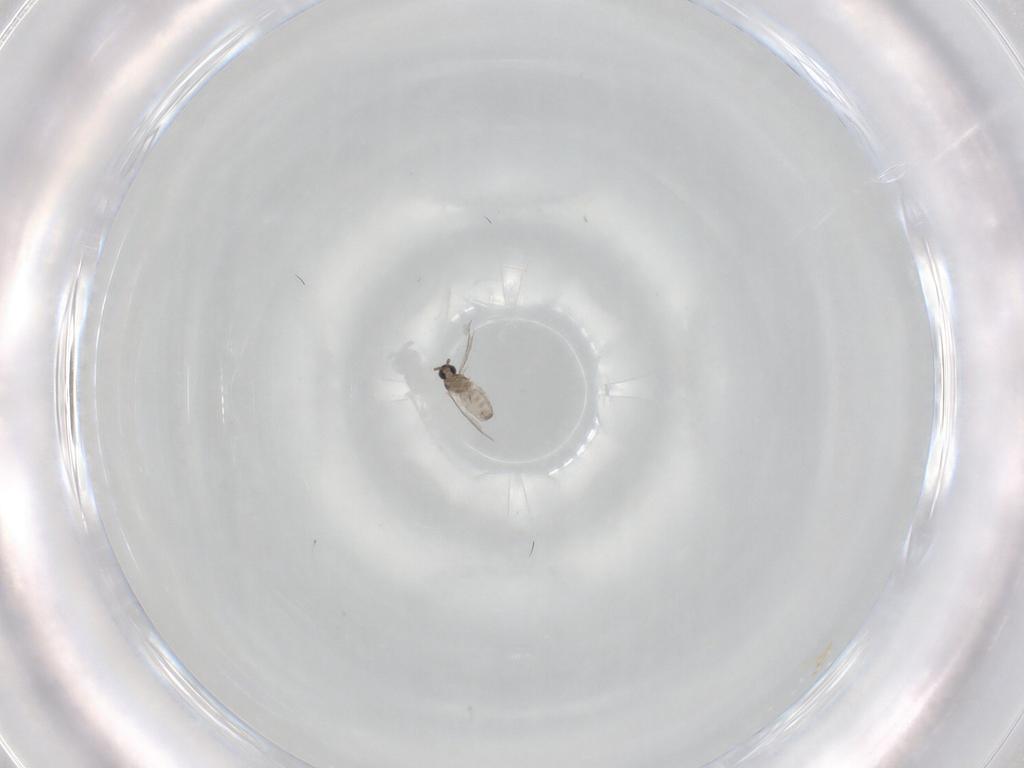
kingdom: Animalia
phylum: Arthropoda
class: Insecta
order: Diptera
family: Cecidomyiidae
